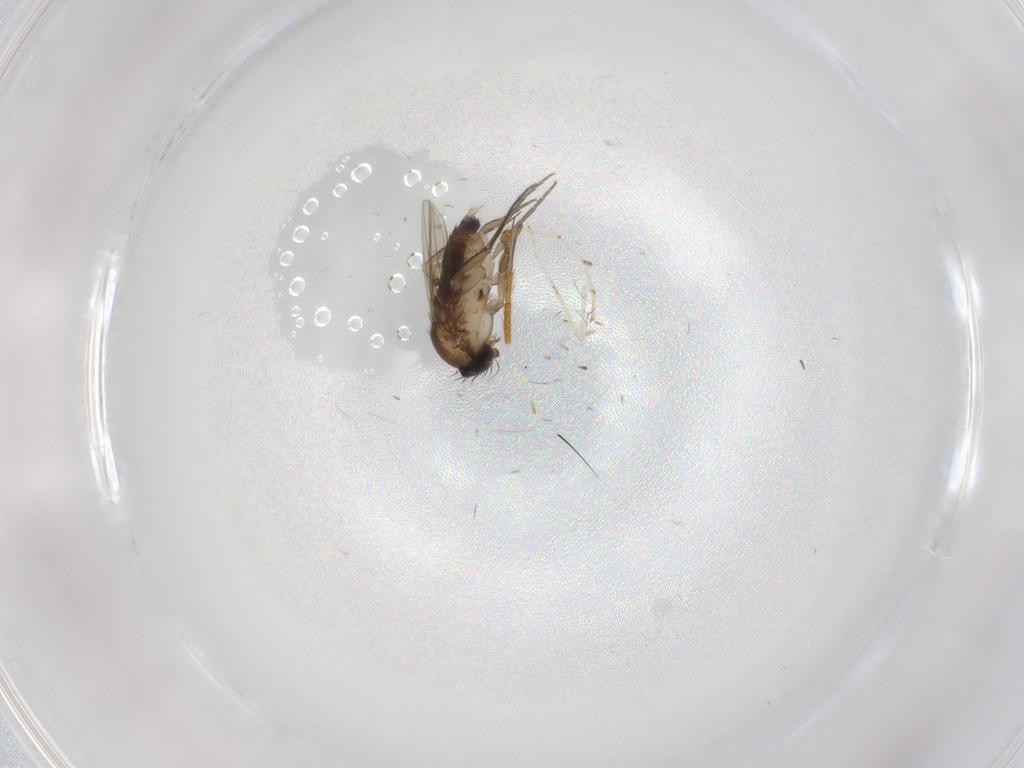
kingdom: Animalia
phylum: Arthropoda
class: Insecta
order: Diptera
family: Phoridae
